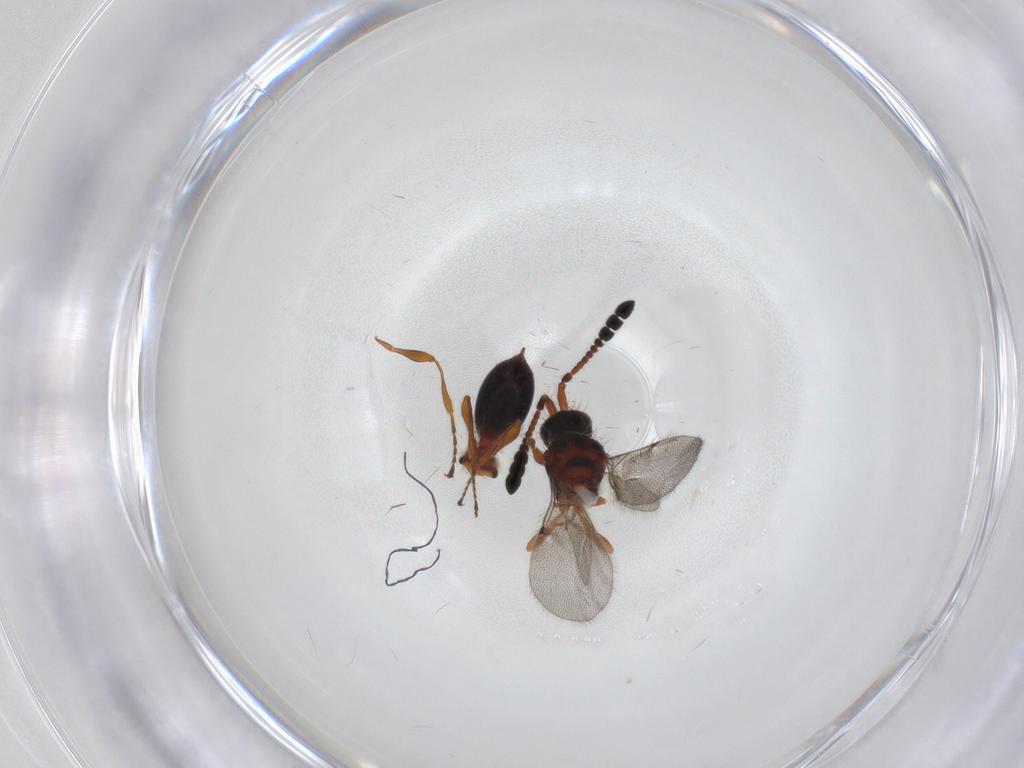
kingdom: Animalia
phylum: Arthropoda
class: Insecta
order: Hymenoptera
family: Diapriidae
